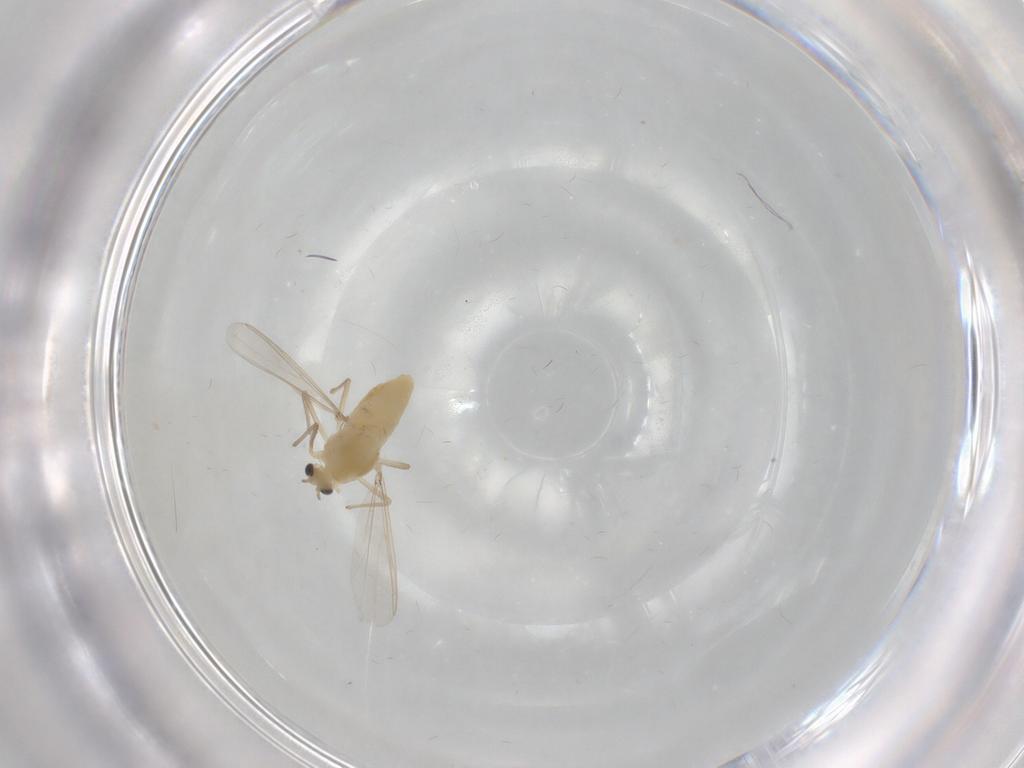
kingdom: Animalia
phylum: Arthropoda
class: Insecta
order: Diptera
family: Chironomidae
